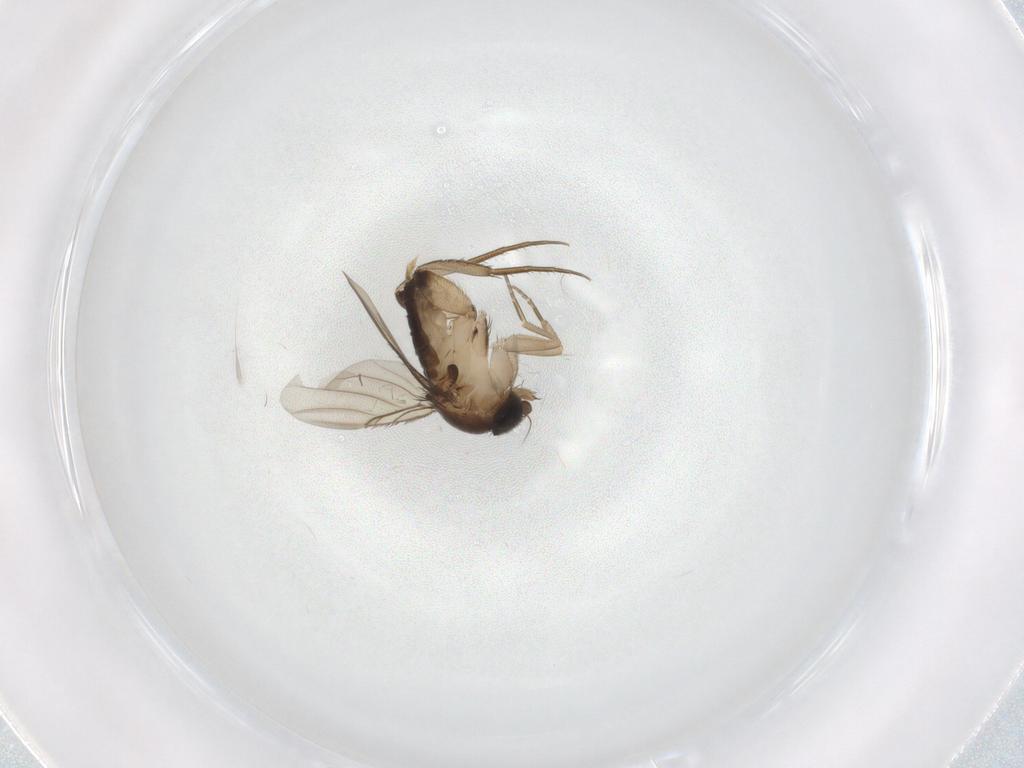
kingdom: Animalia
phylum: Arthropoda
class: Insecta
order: Diptera
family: Phoridae
